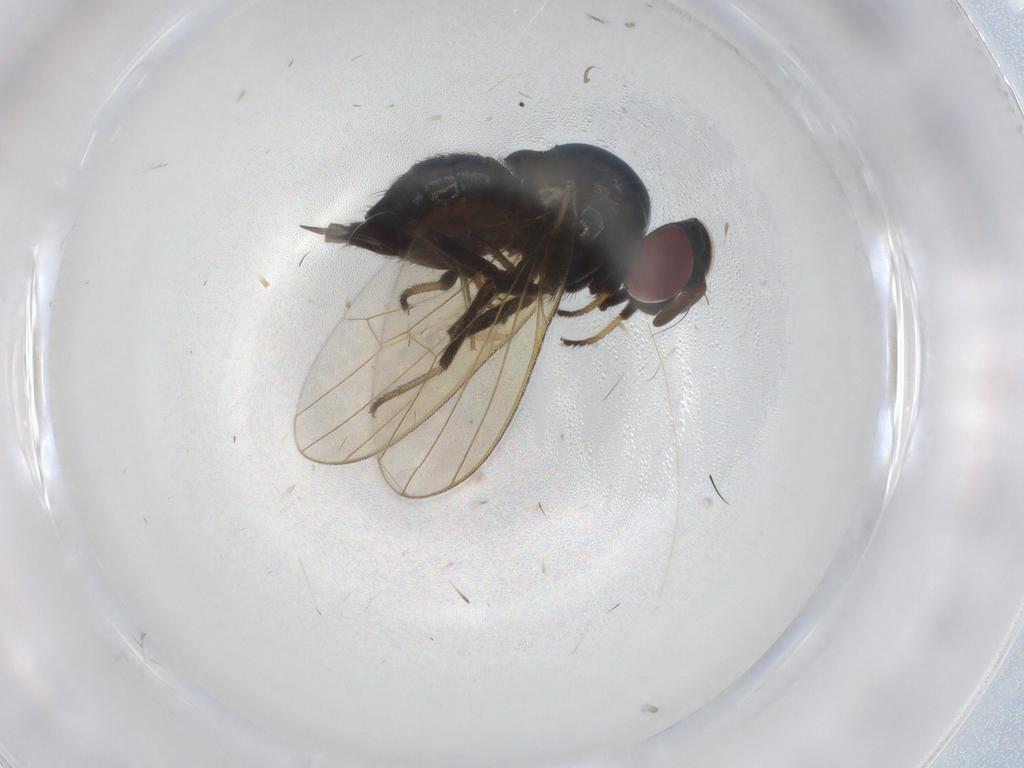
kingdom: Animalia
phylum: Arthropoda
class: Insecta
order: Diptera
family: Lonchaeidae
